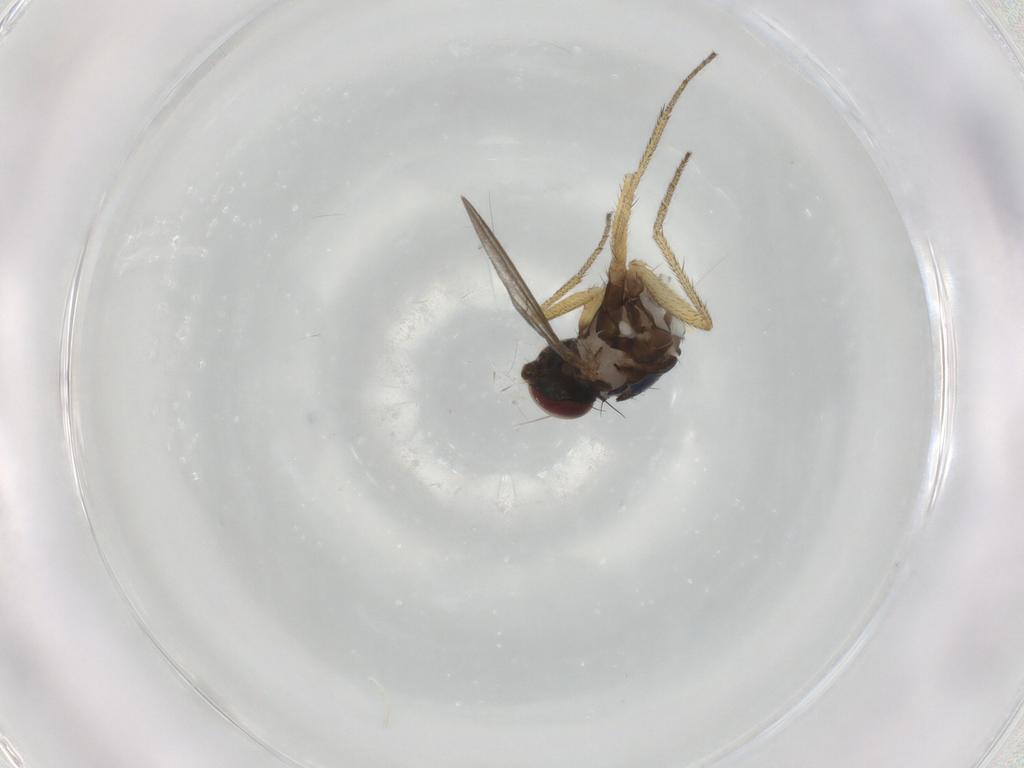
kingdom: Animalia
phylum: Arthropoda
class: Insecta
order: Diptera
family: Dolichopodidae
